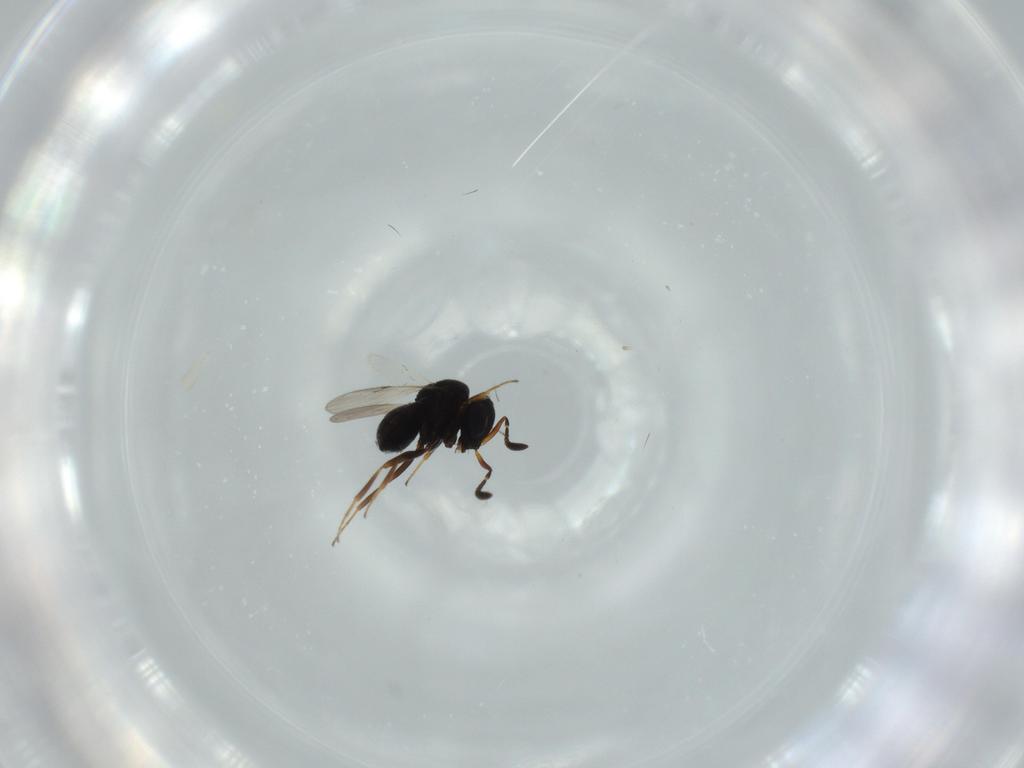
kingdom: Animalia
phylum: Arthropoda
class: Insecta
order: Hymenoptera
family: Scelionidae
